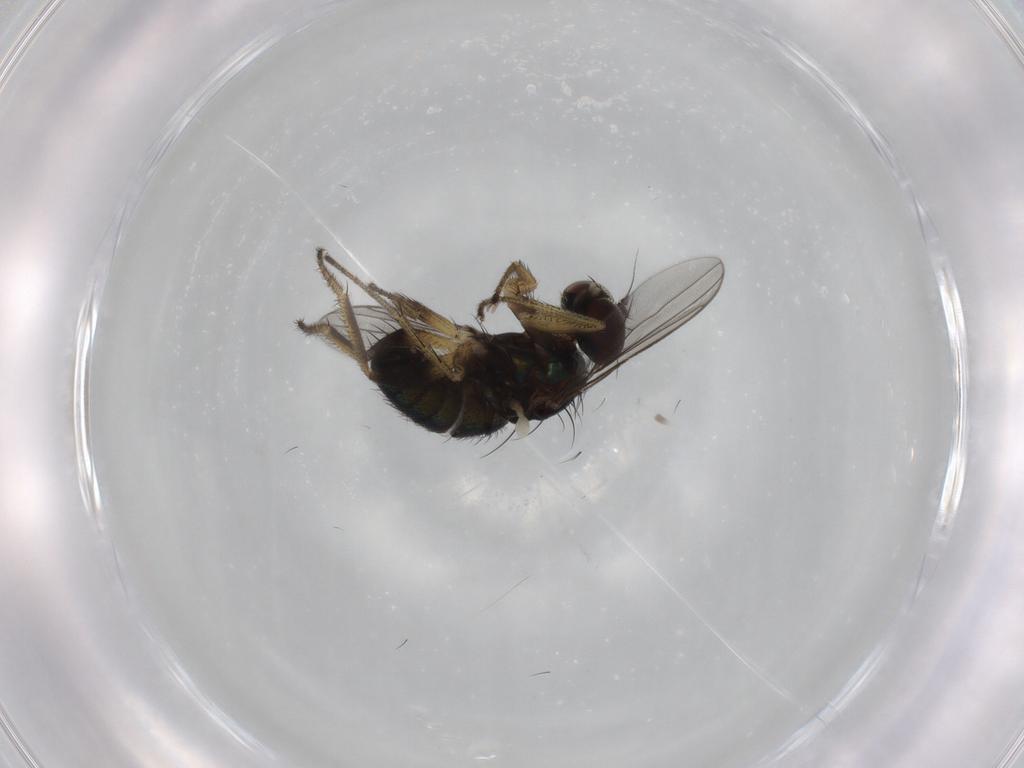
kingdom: Animalia
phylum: Arthropoda
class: Insecta
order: Diptera
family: Dolichopodidae
